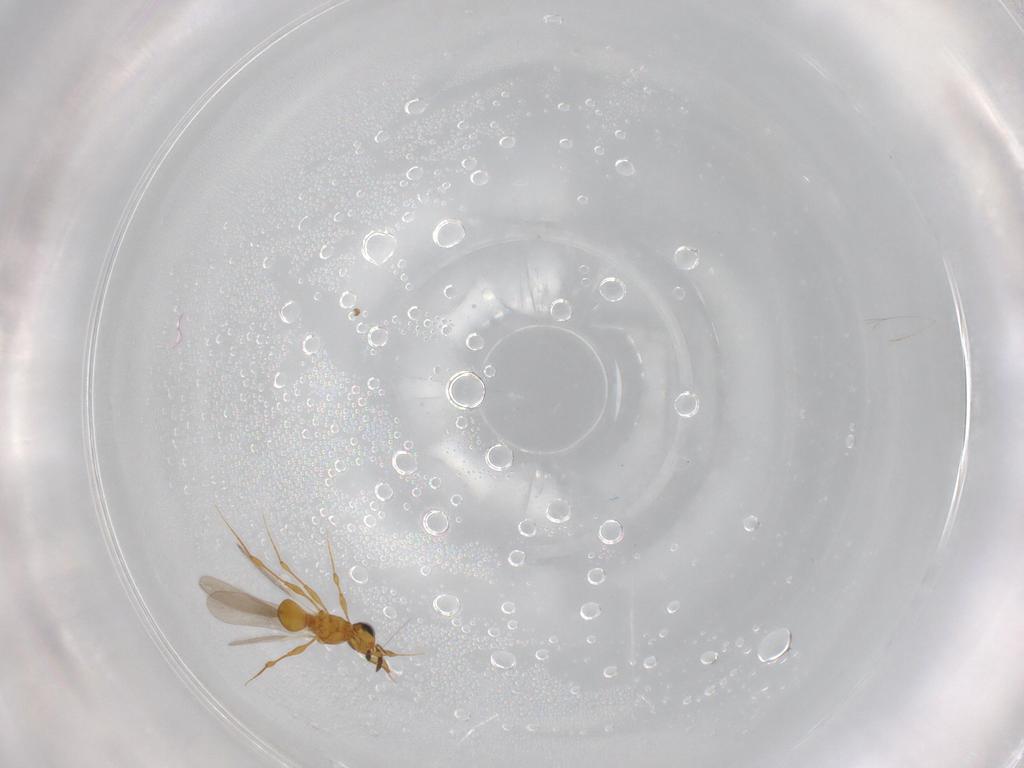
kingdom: Animalia
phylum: Arthropoda
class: Insecta
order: Hymenoptera
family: Platygastridae
